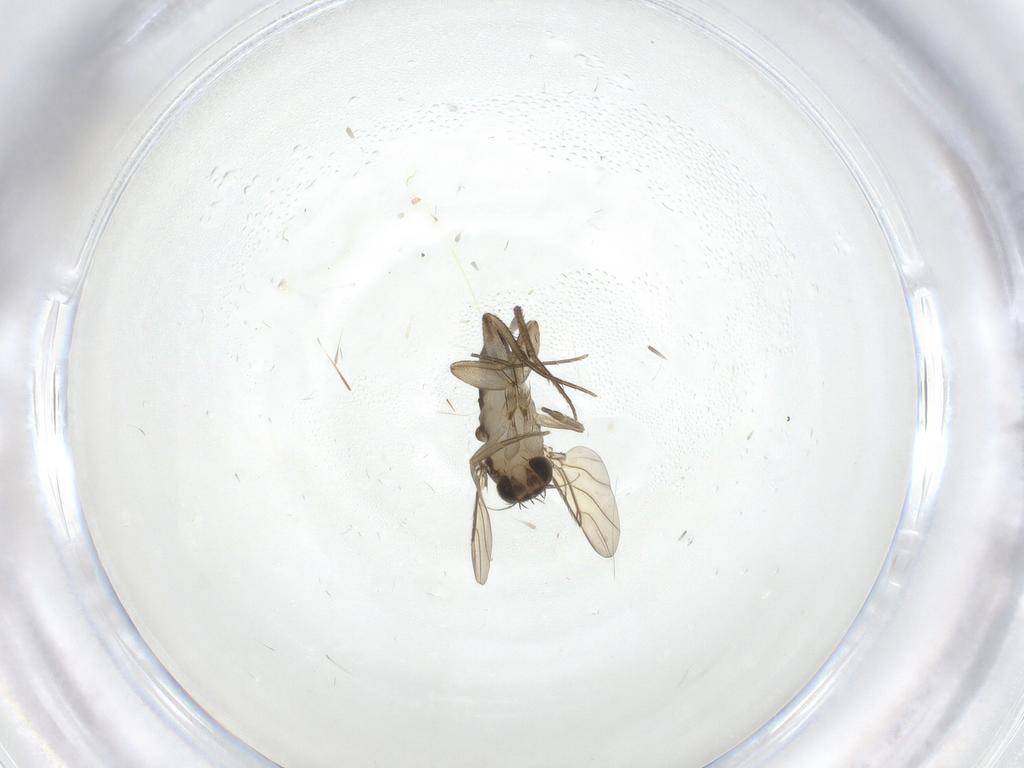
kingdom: Animalia
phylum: Arthropoda
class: Insecta
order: Diptera
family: Phoridae
